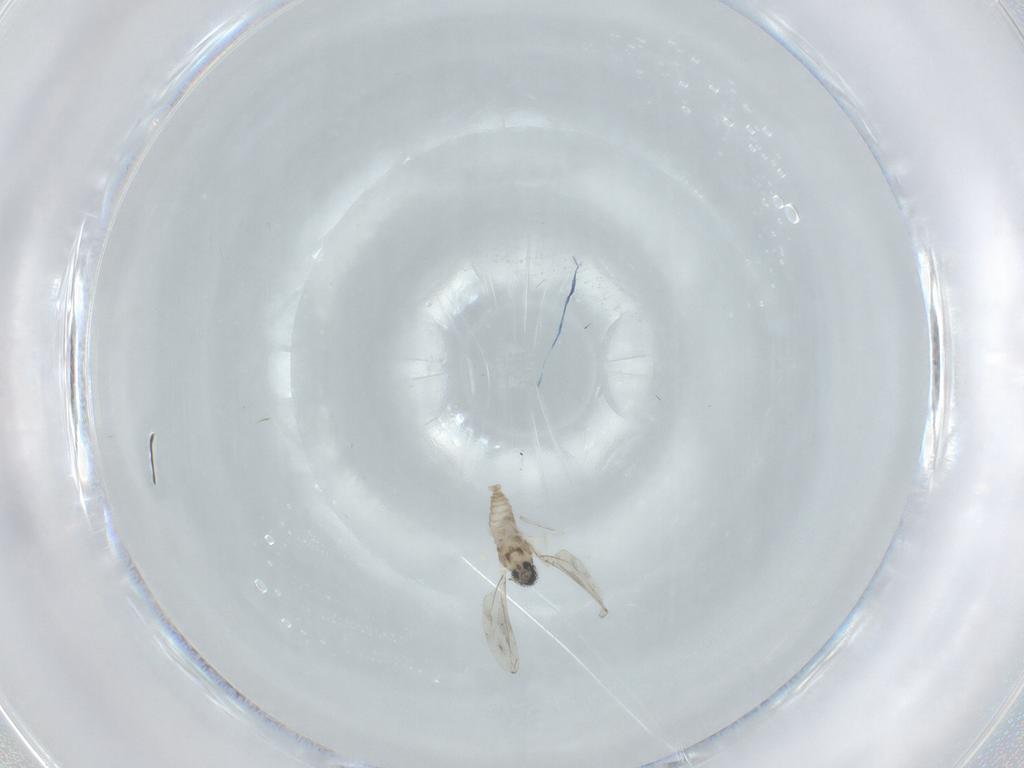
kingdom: Animalia
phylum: Arthropoda
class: Insecta
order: Diptera
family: Cecidomyiidae
